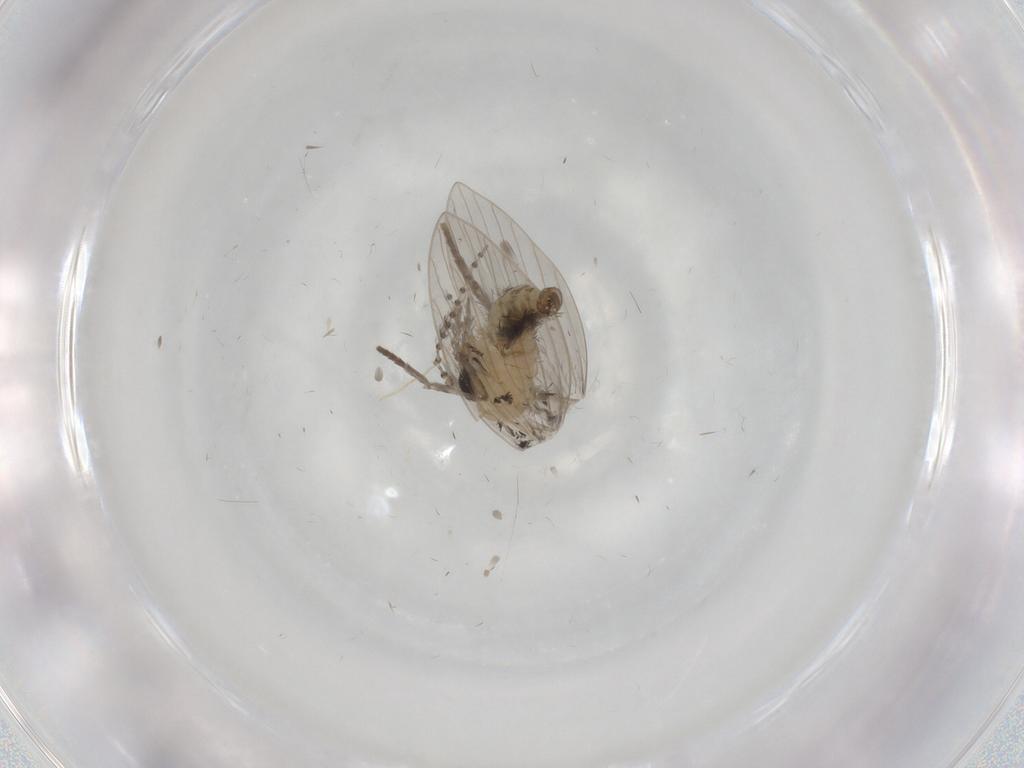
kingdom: Animalia
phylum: Arthropoda
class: Insecta
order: Diptera
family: Psychodidae
